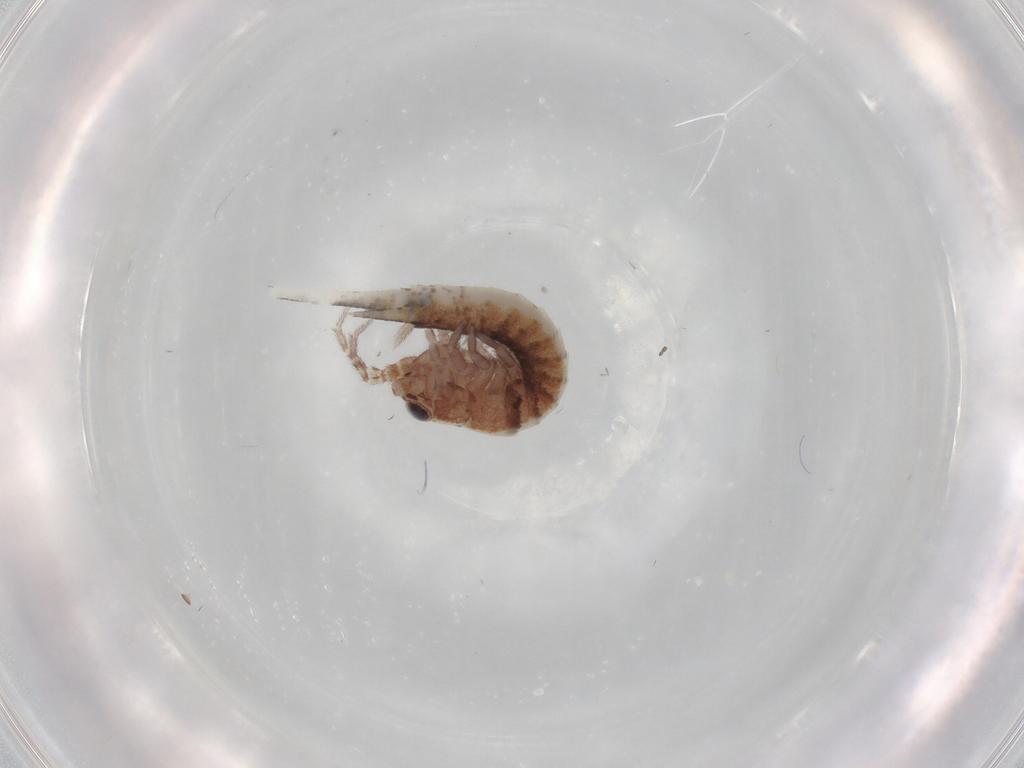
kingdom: Animalia
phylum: Arthropoda
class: Insecta
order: Archaeognatha
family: Machilidae
